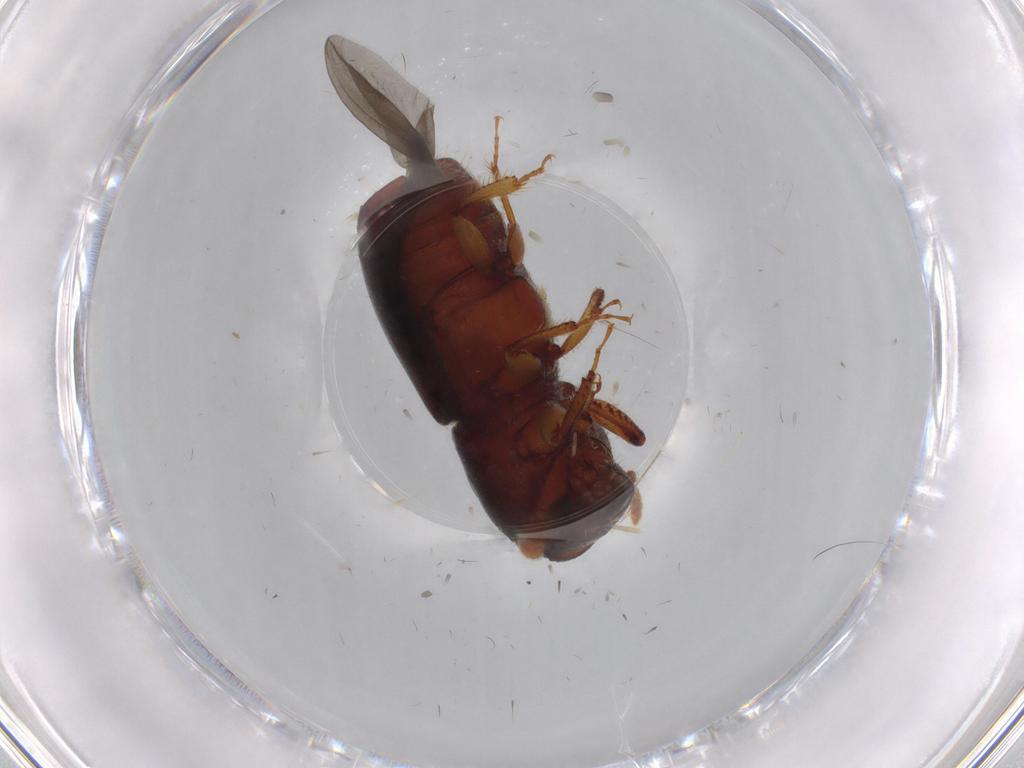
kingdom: Animalia
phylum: Arthropoda
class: Insecta
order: Coleoptera
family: Curculionidae
